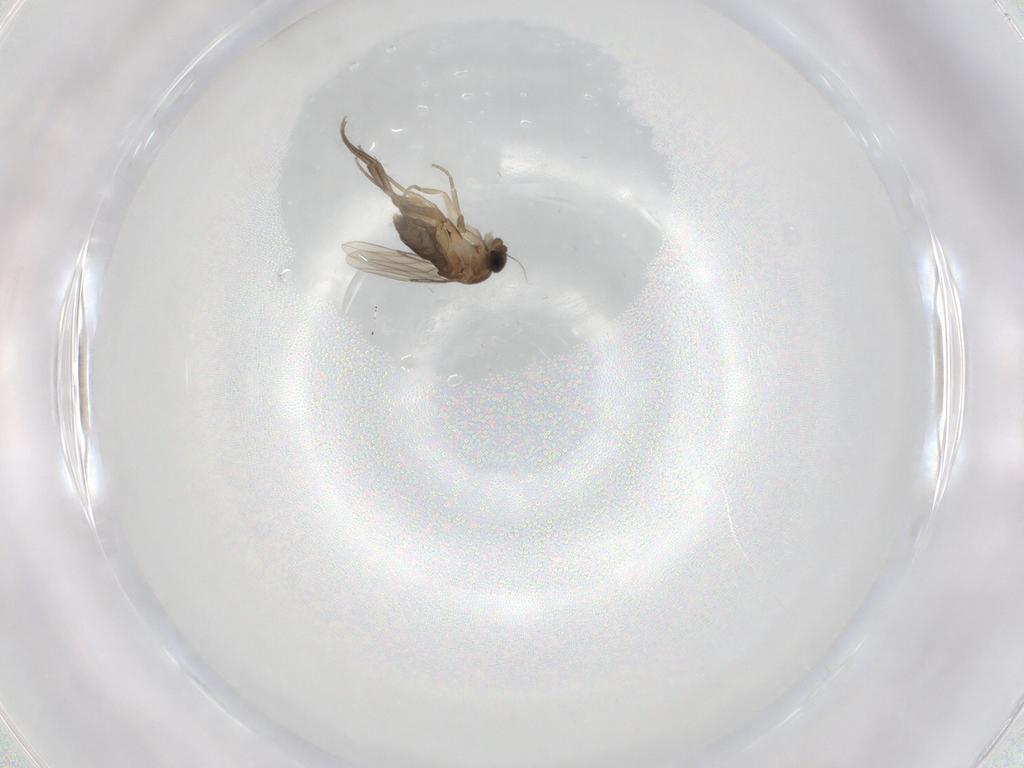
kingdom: Animalia
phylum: Arthropoda
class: Insecta
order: Diptera
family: Phoridae
